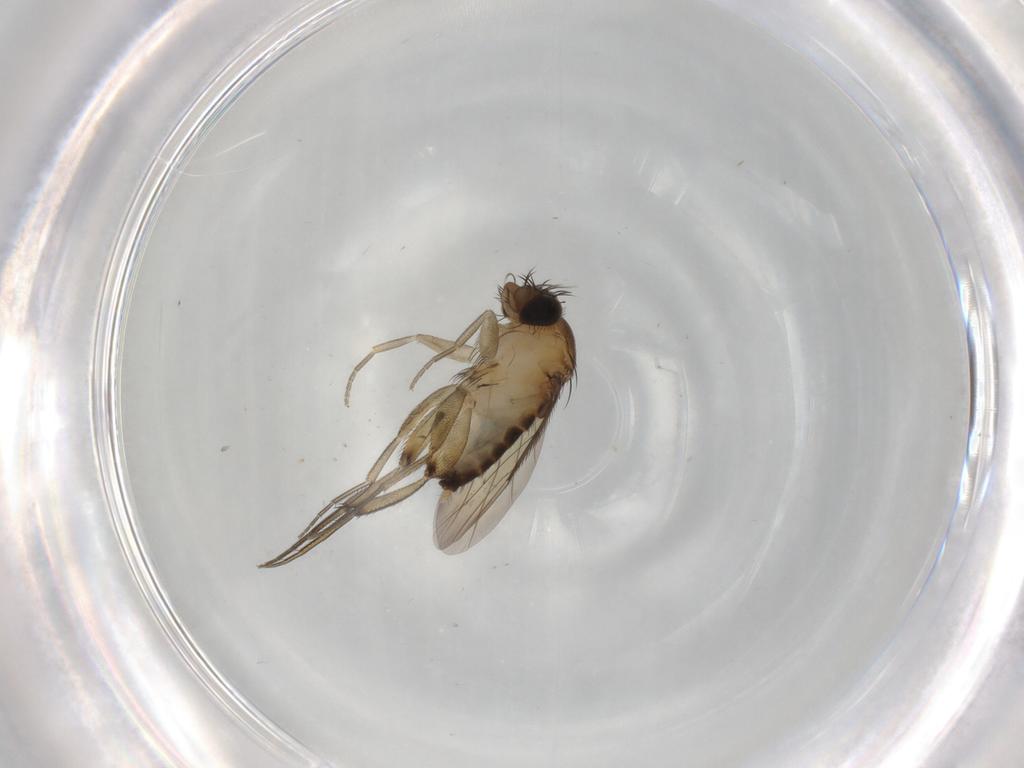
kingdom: Animalia
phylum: Arthropoda
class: Insecta
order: Diptera
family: Phoridae
